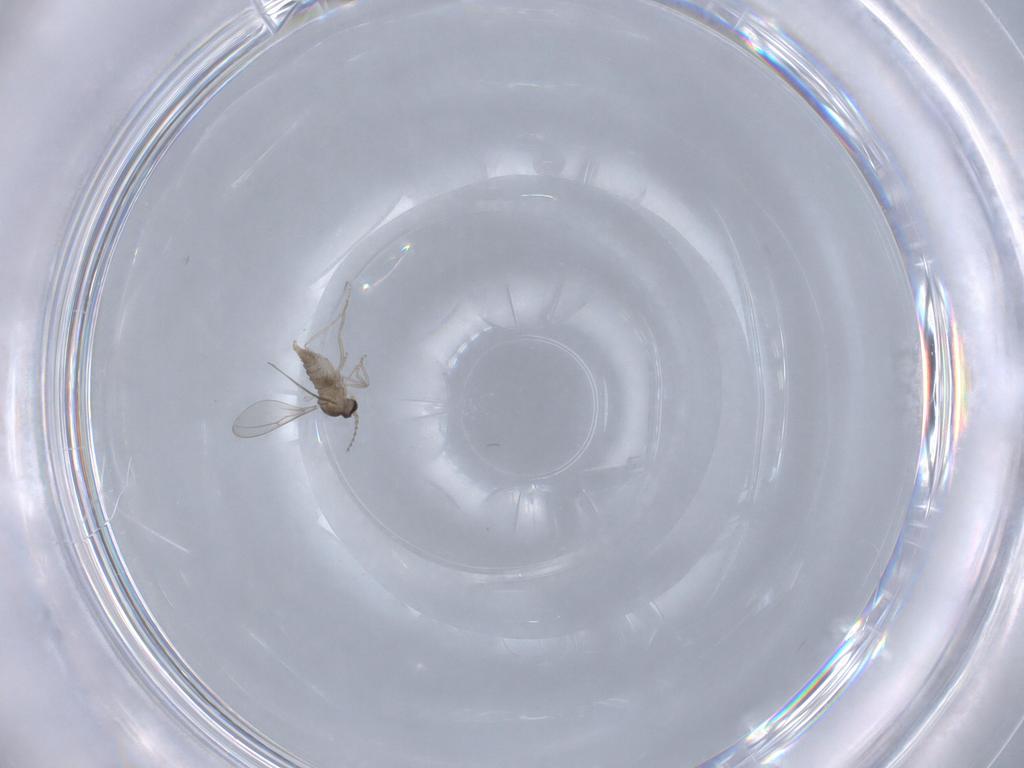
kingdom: Animalia
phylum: Arthropoda
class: Insecta
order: Diptera
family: Cecidomyiidae
